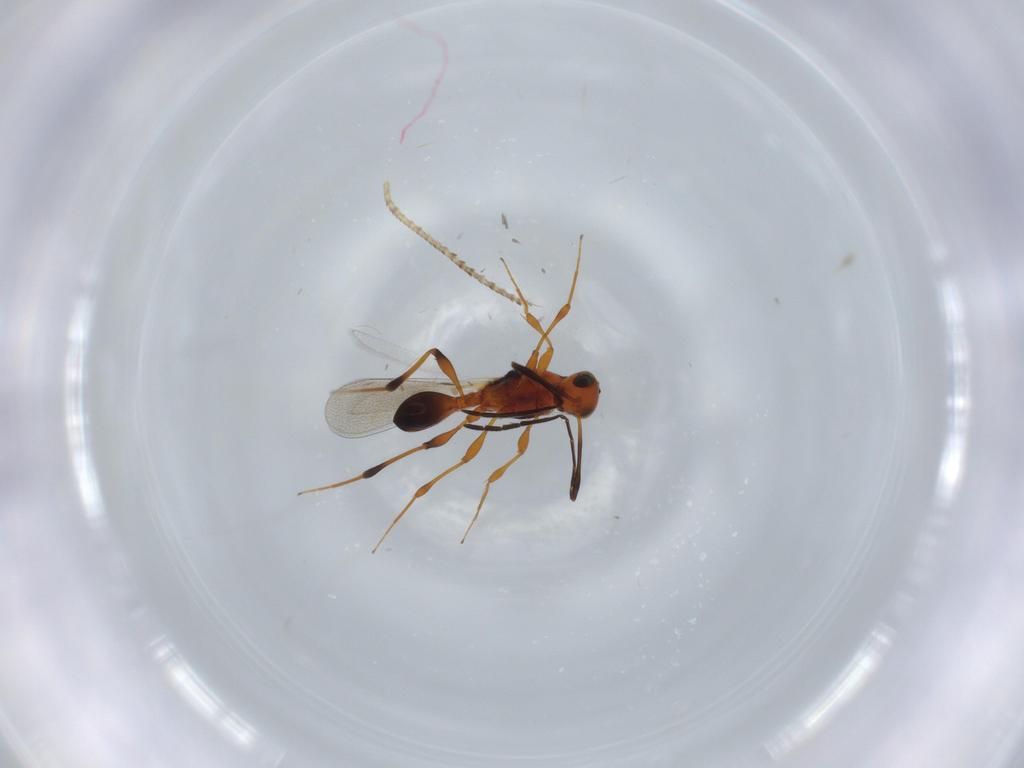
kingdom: Animalia
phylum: Arthropoda
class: Insecta
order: Hymenoptera
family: Platygastridae
